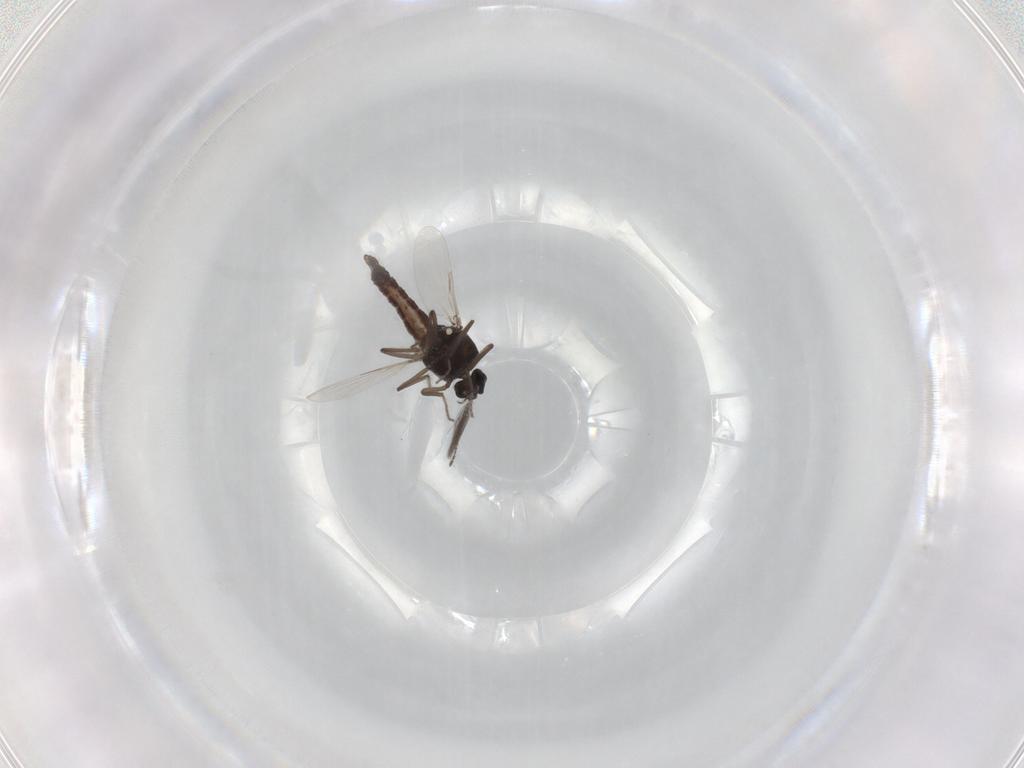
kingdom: Animalia
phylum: Arthropoda
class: Insecta
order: Diptera
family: Ceratopogonidae
